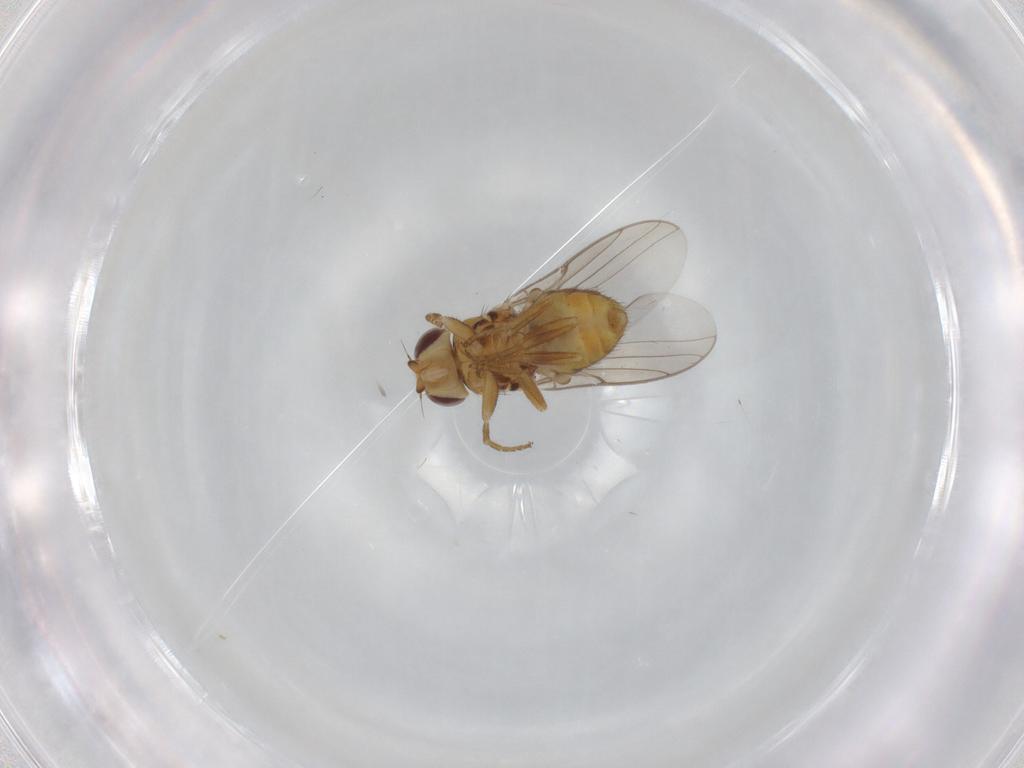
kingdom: Animalia
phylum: Arthropoda
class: Insecta
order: Diptera
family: Chloropidae
